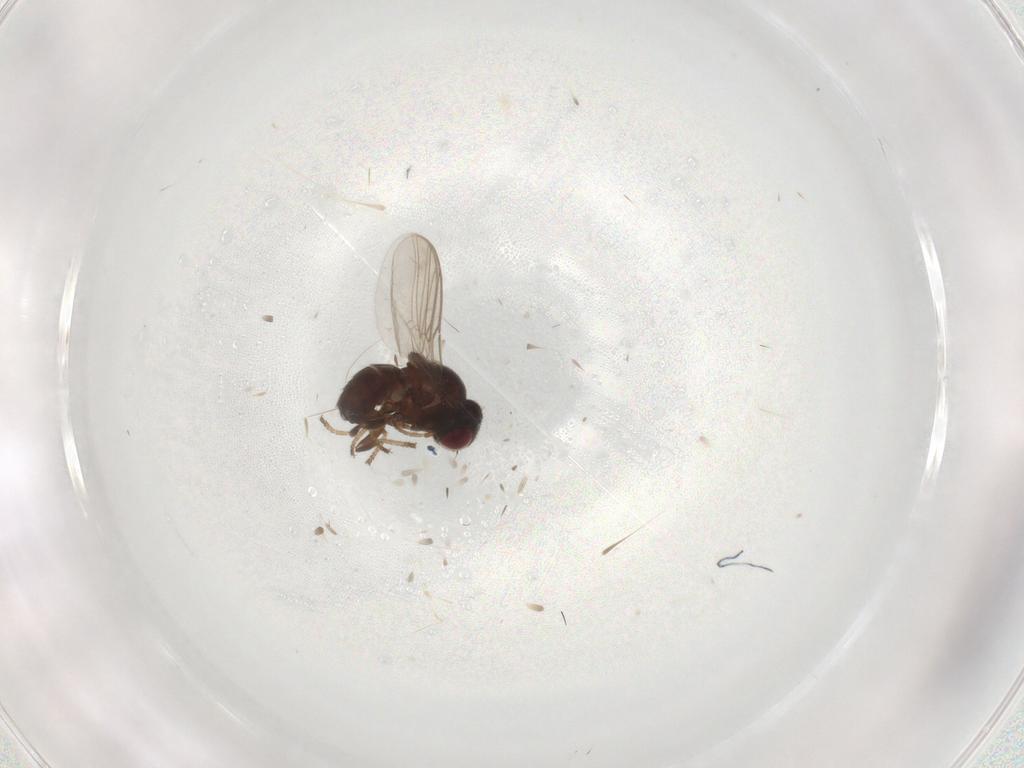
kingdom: Animalia
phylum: Arthropoda
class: Insecta
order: Diptera
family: Chloropidae
